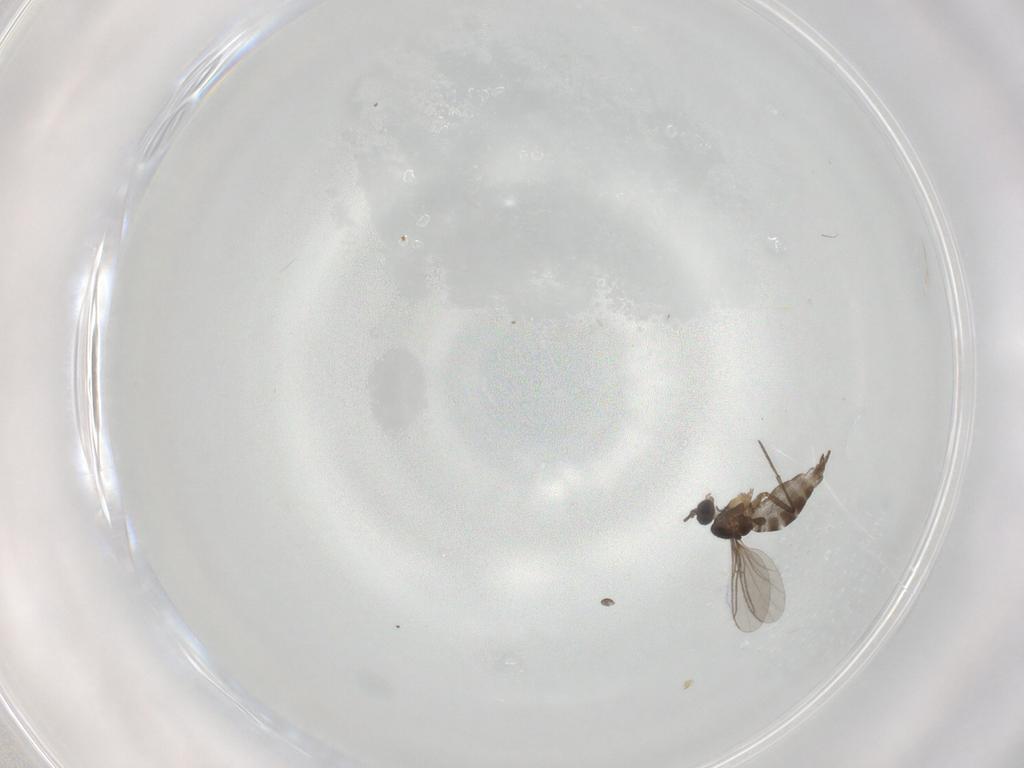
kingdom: Animalia
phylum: Arthropoda
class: Insecta
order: Diptera
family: Sciaridae
